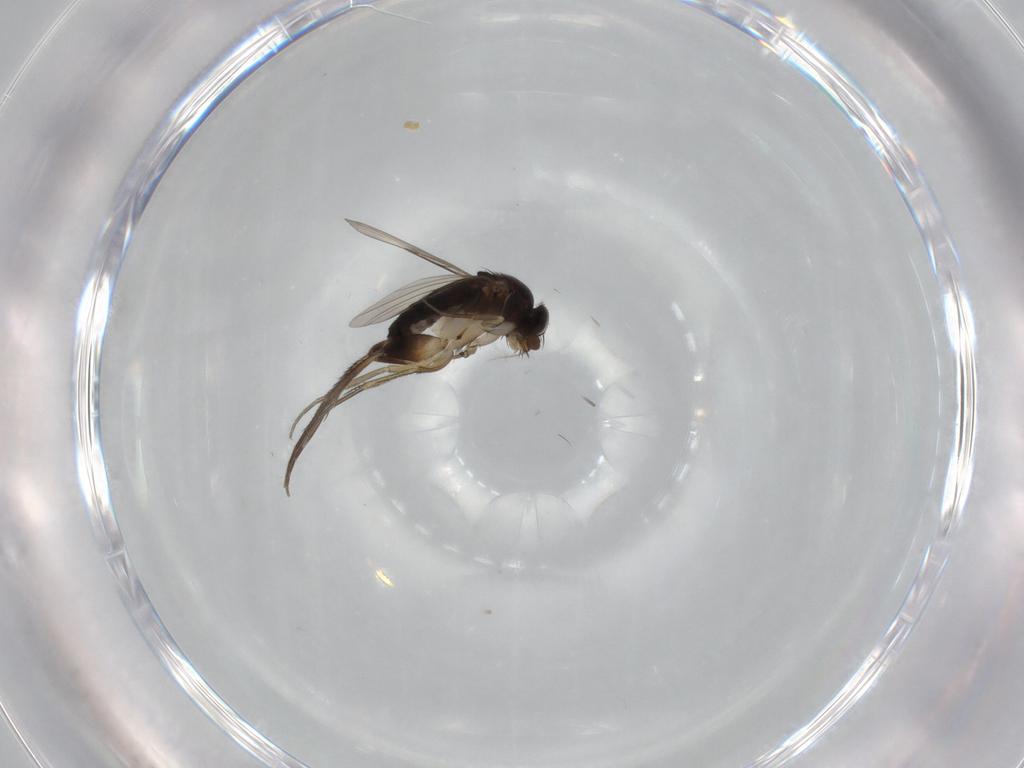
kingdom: Animalia
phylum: Arthropoda
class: Insecta
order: Diptera
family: Phoridae
